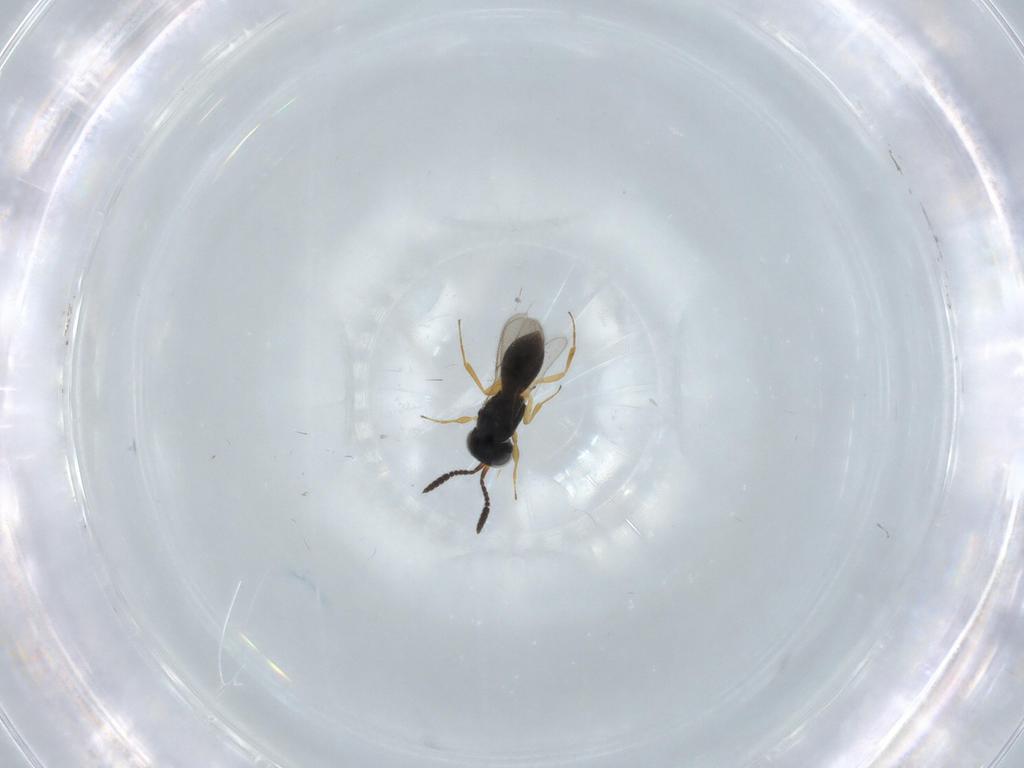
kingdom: Animalia
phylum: Arthropoda
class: Insecta
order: Hymenoptera
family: Scelionidae
